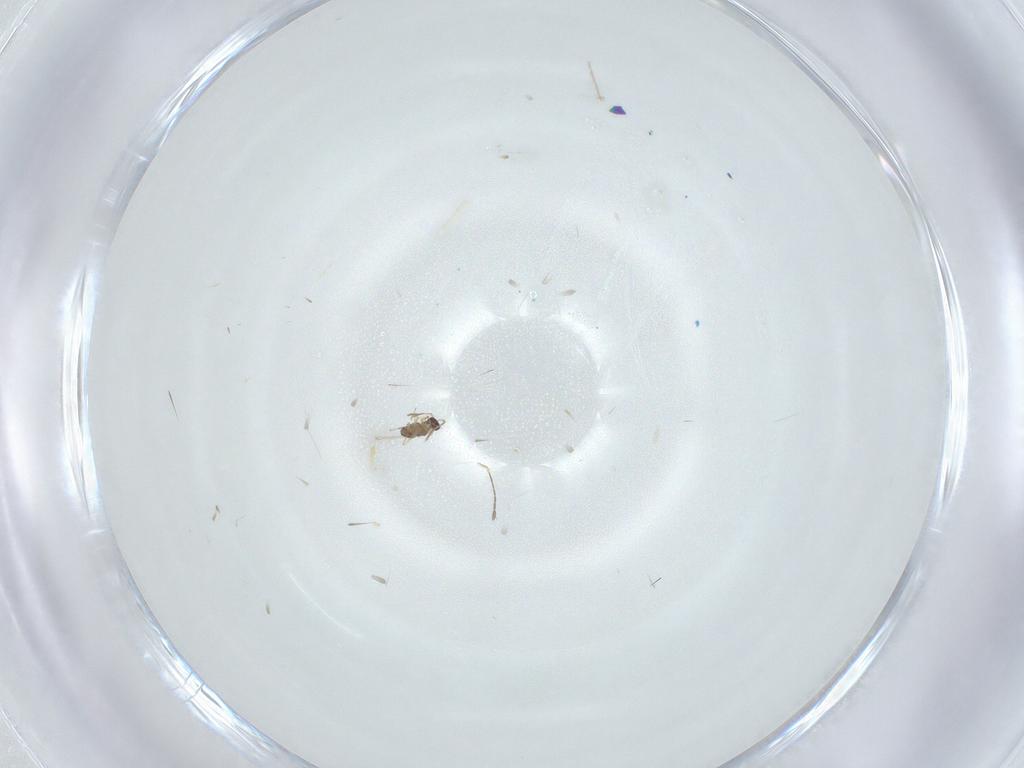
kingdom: Animalia
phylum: Arthropoda
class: Insecta
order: Hymenoptera
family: Mymaridae
